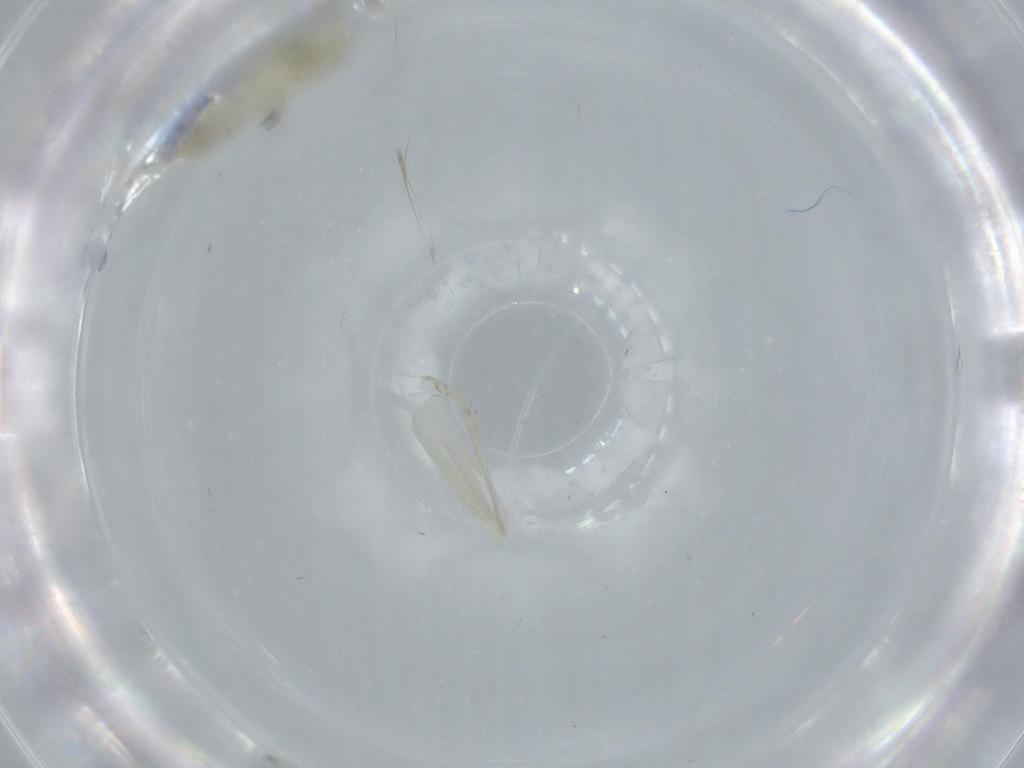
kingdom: Animalia
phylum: Arthropoda
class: Insecta
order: Orthoptera
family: Trigonidiidae
